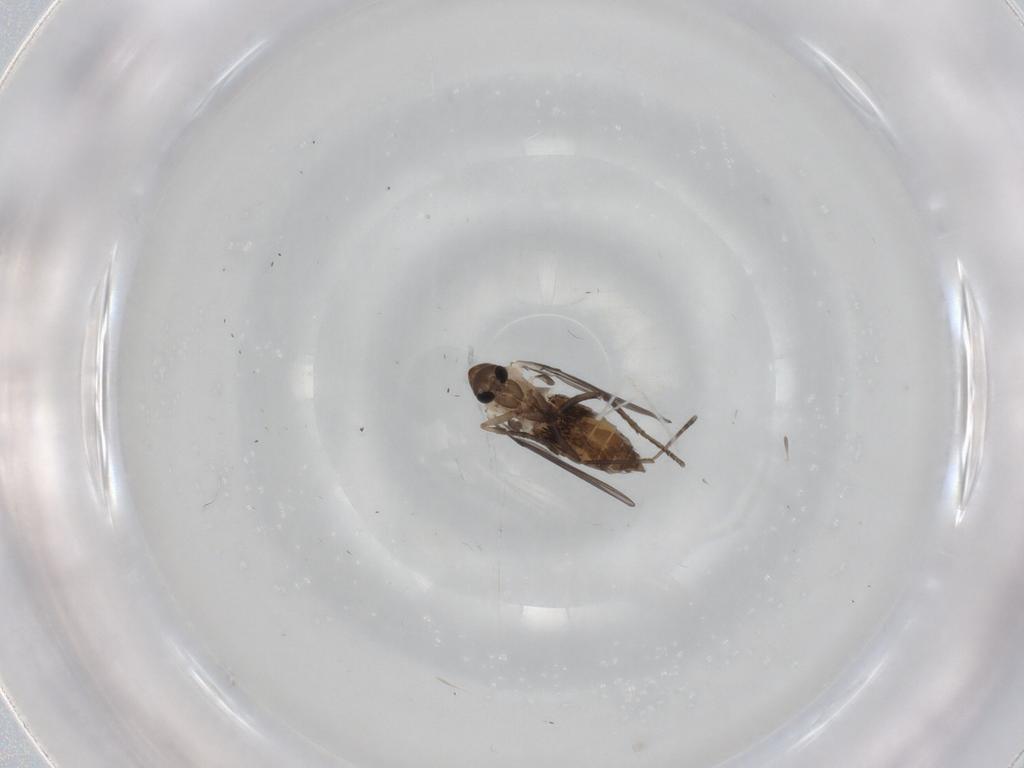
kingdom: Animalia
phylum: Arthropoda
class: Insecta
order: Diptera
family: Psychodidae
